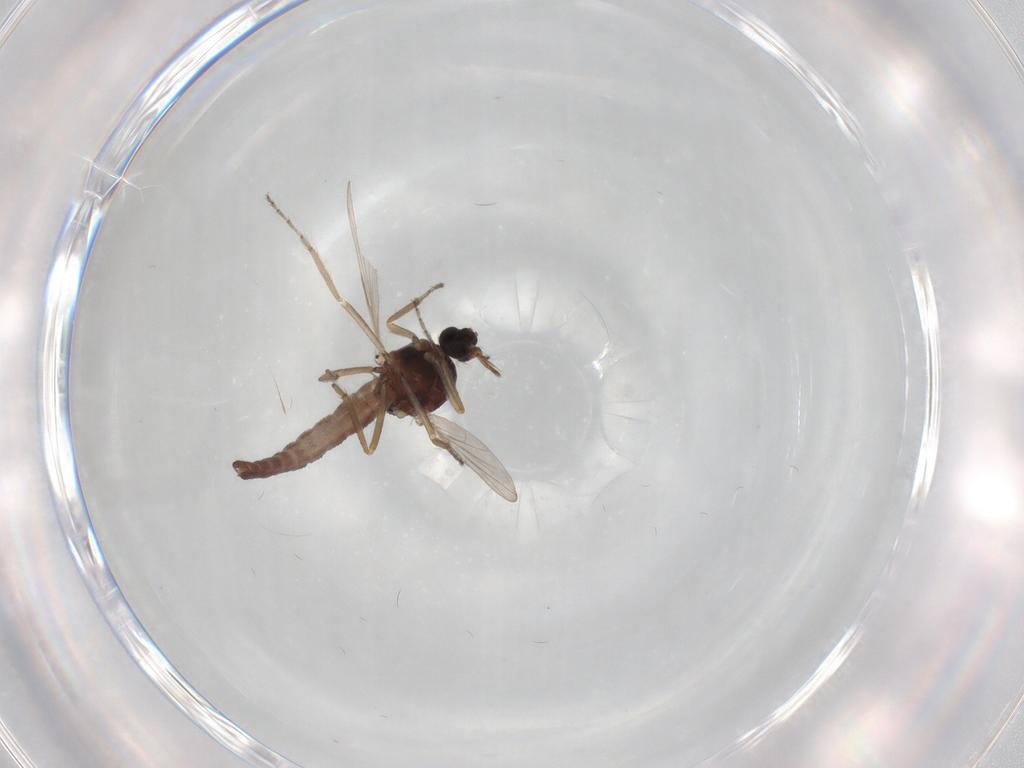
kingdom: Animalia
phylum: Arthropoda
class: Insecta
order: Diptera
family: Ceratopogonidae
